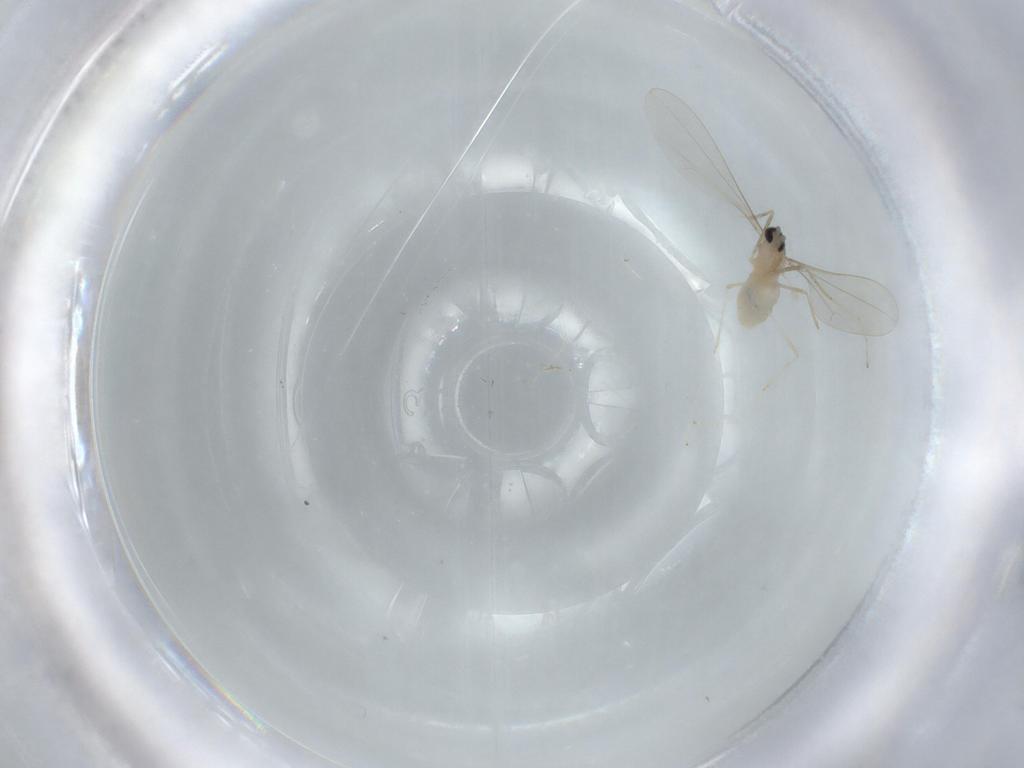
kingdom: Animalia
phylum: Arthropoda
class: Insecta
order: Diptera
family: Cecidomyiidae
